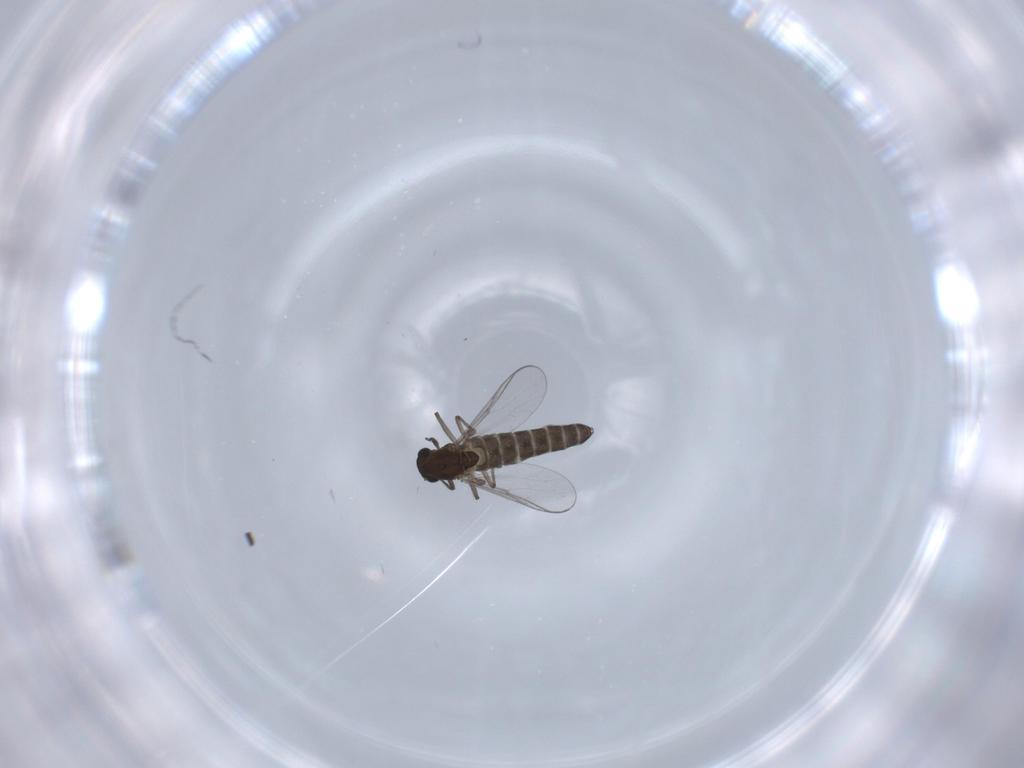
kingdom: Animalia
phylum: Arthropoda
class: Insecta
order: Diptera
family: Chironomidae
